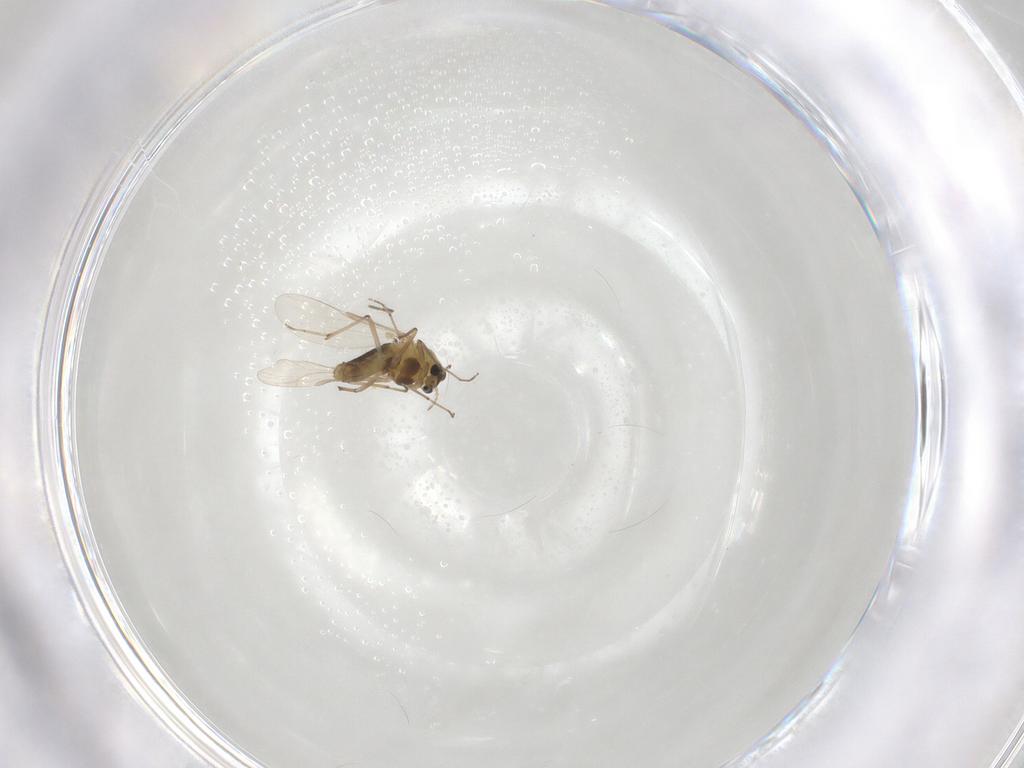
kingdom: Animalia
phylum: Arthropoda
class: Insecta
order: Diptera
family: Chironomidae
